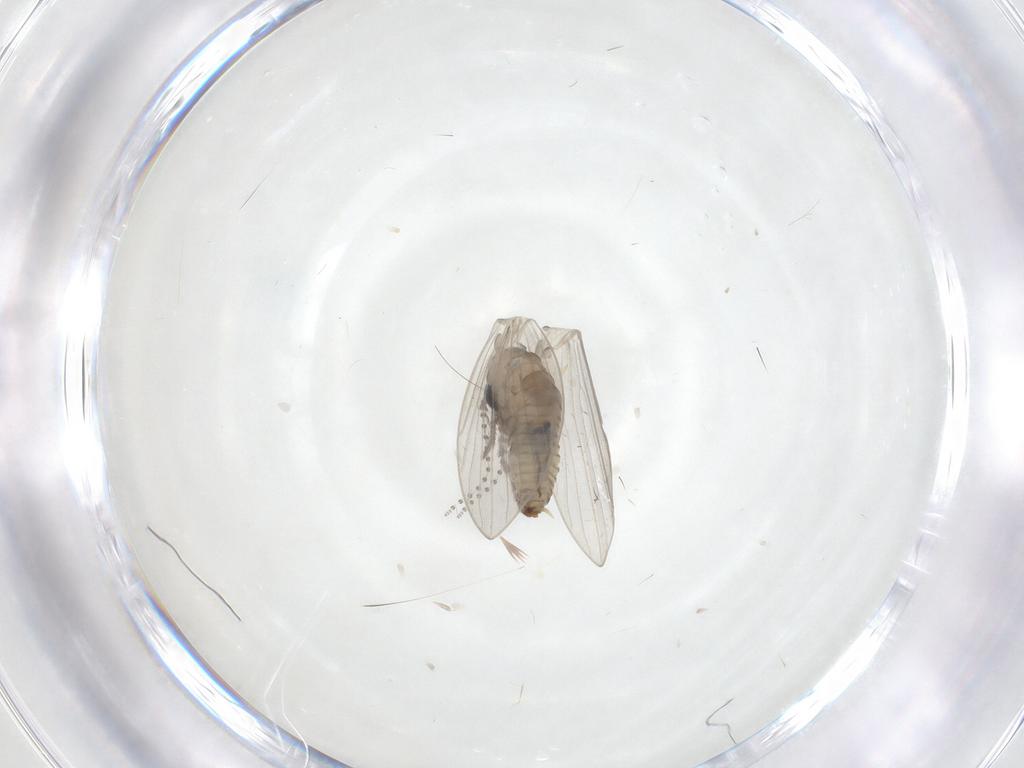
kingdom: Animalia
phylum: Arthropoda
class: Insecta
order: Diptera
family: Psychodidae
